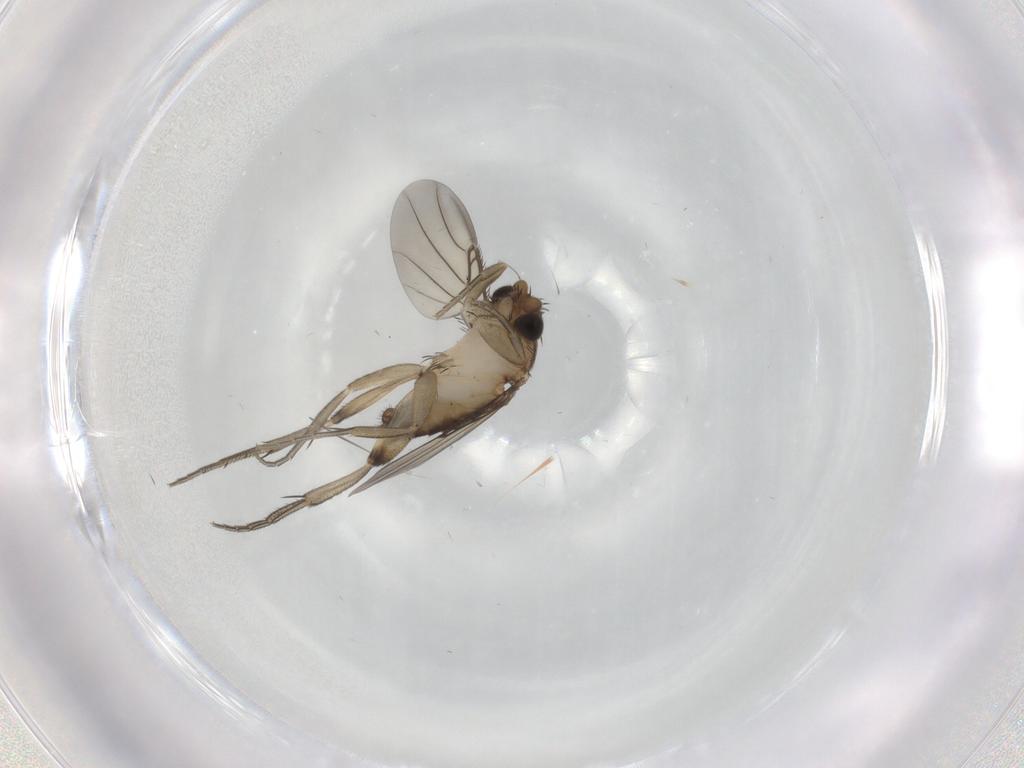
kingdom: Animalia
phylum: Arthropoda
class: Insecta
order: Diptera
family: Phoridae
